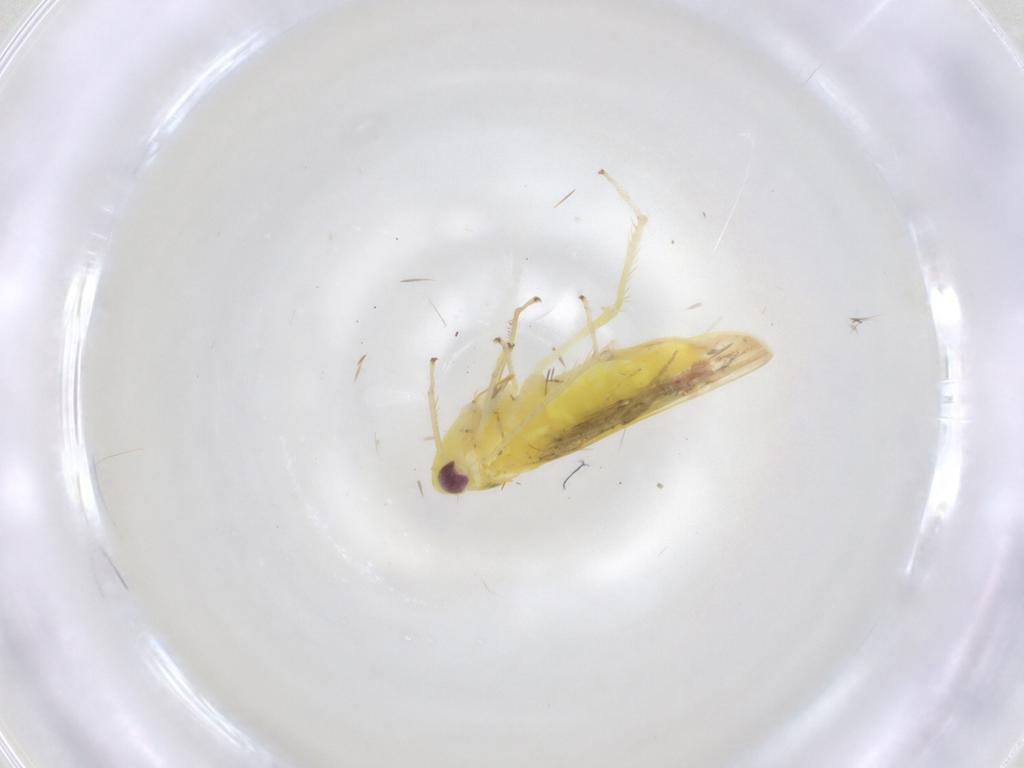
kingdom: Animalia
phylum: Arthropoda
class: Insecta
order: Hemiptera
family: Cicadellidae
